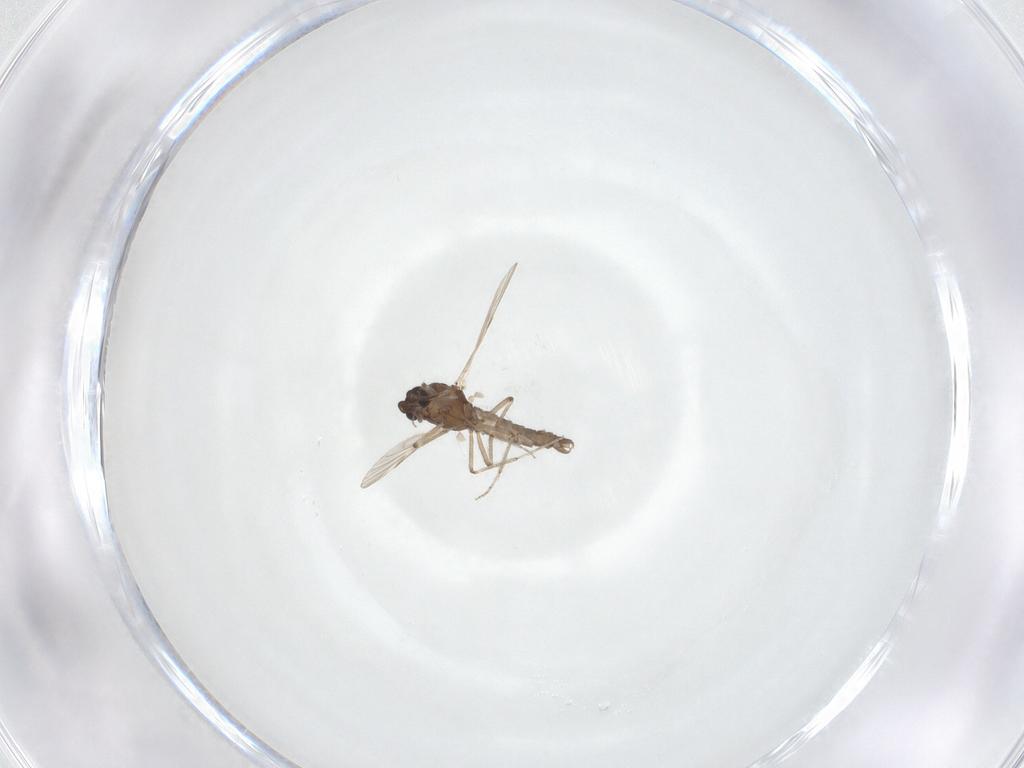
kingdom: Animalia
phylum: Arthropoda
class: Insecta
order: Diptera
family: Ceratopogonidae
